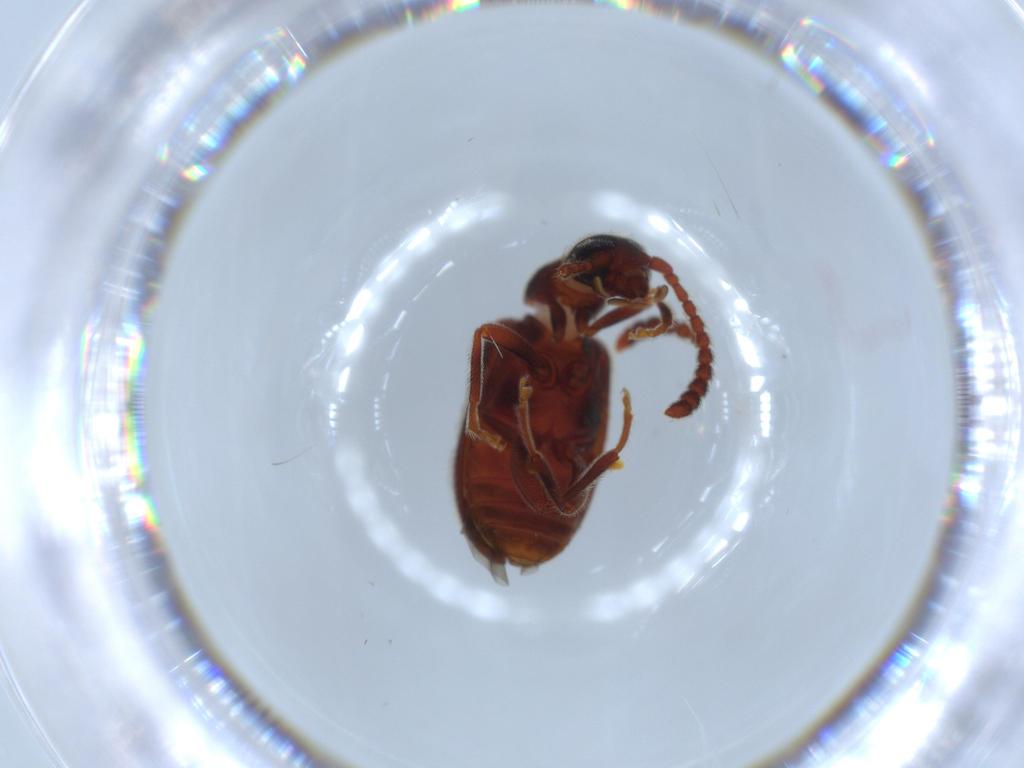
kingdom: Animalia
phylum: Arthropoda
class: Insecta
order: Coleoptera
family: Aderidae
